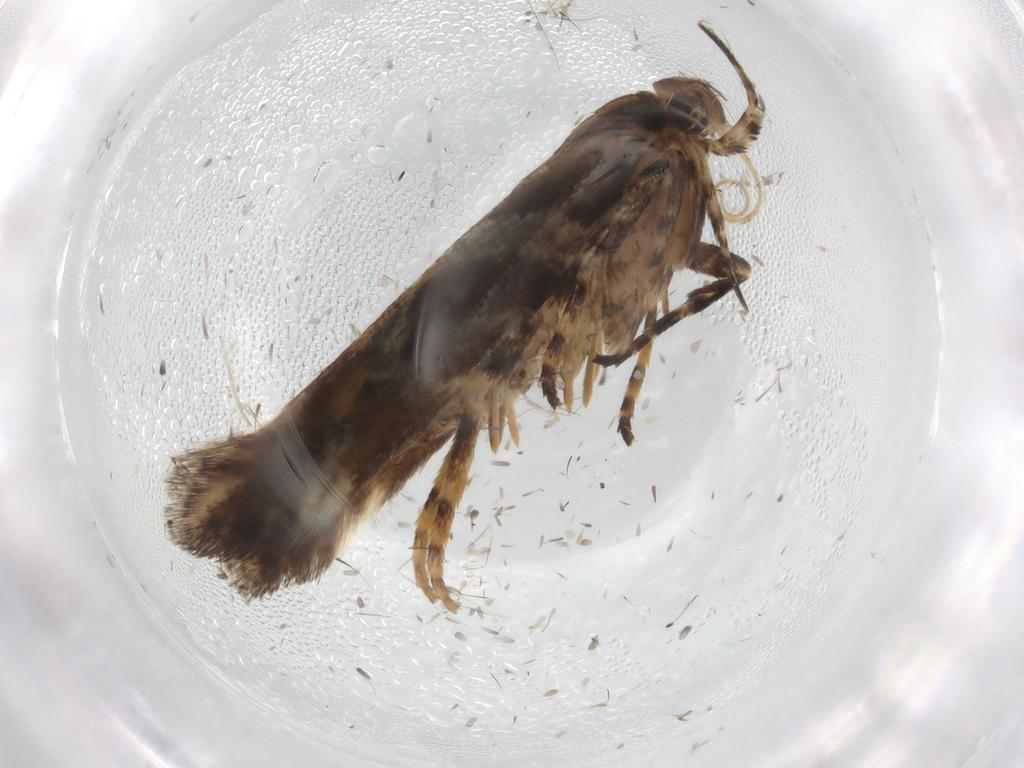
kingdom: Animalia
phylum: Arthropoda
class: Insecta
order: Lepidoptera
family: Gelechiidae
